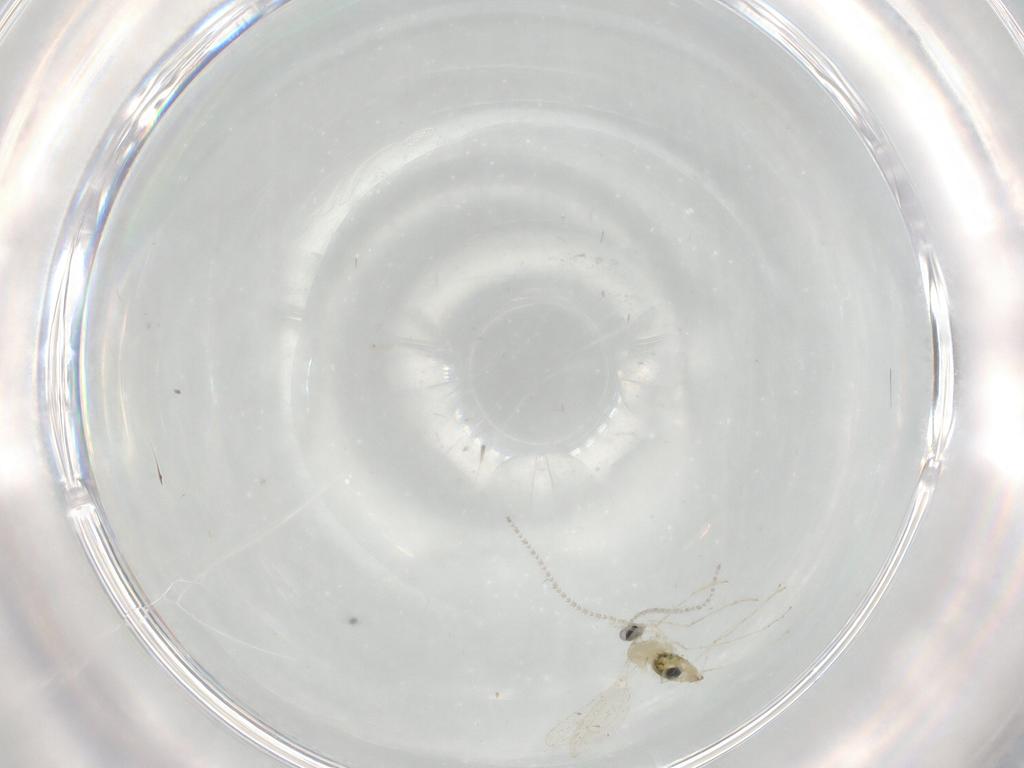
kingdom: Animalia
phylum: Arthropoda
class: Insecta
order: Diptera
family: Cecidomyiidae
